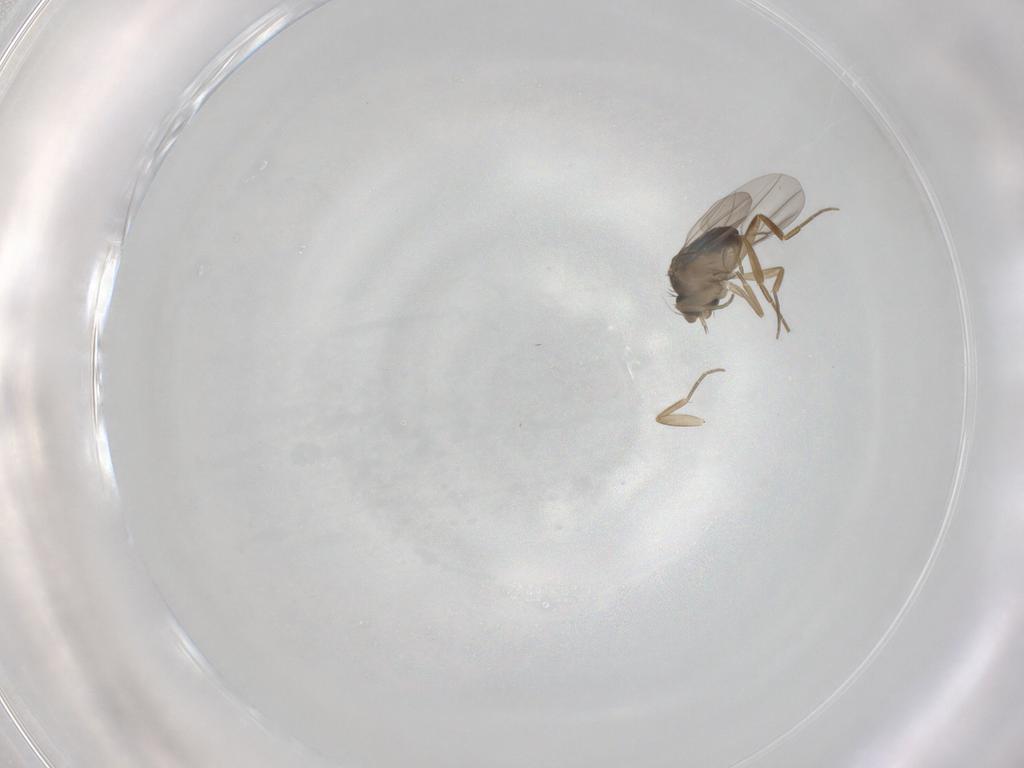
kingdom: Animalia
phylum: Arthropoda
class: Insecta
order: Diptera
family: Phoridae
